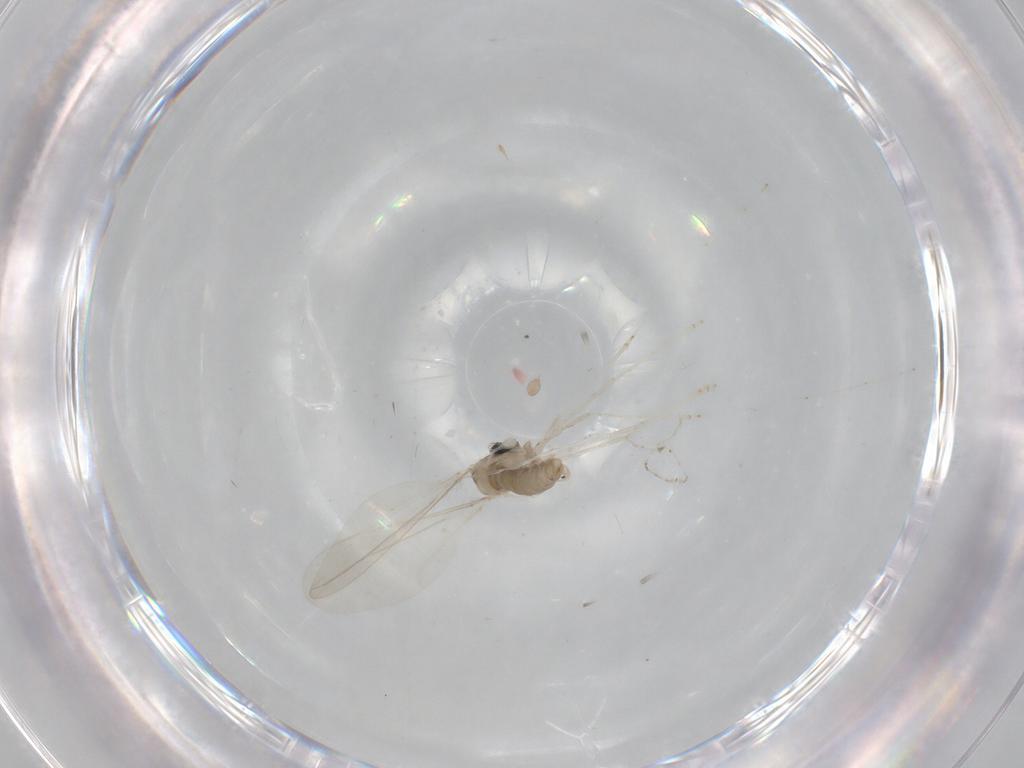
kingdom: Animalia
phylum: Arthropoda
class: Insecta
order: Diptera
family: Cecidomyiidae
